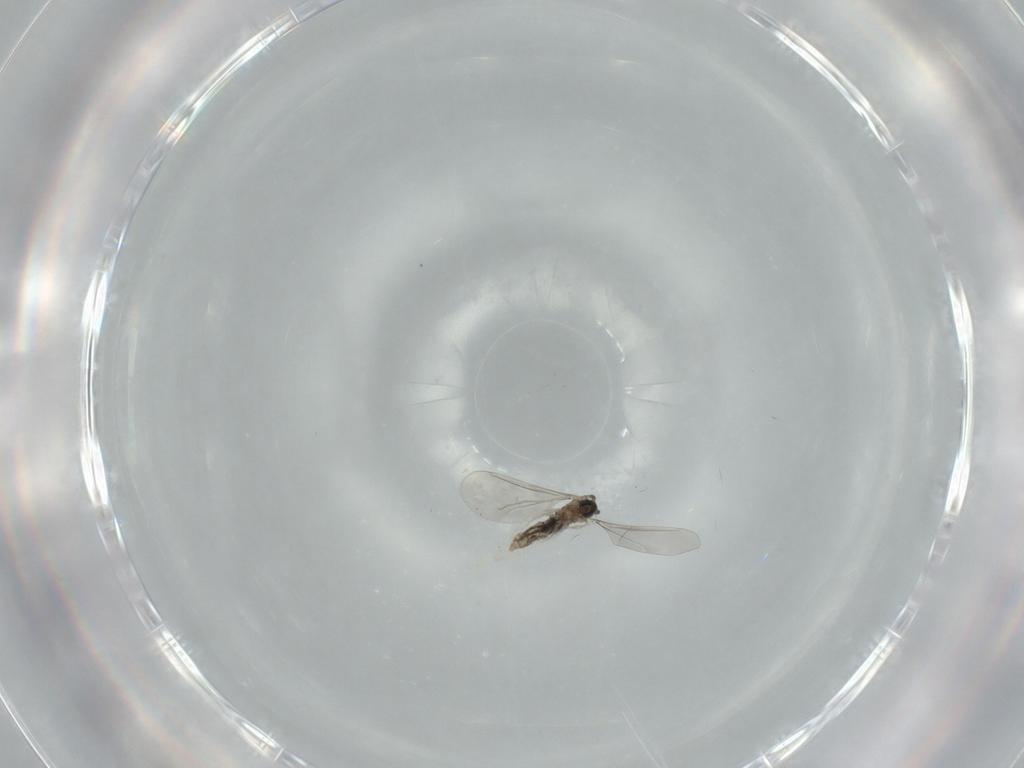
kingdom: Animalia
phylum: Arthropoda
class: Insecta
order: Diptera
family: Cecidomyiidae
